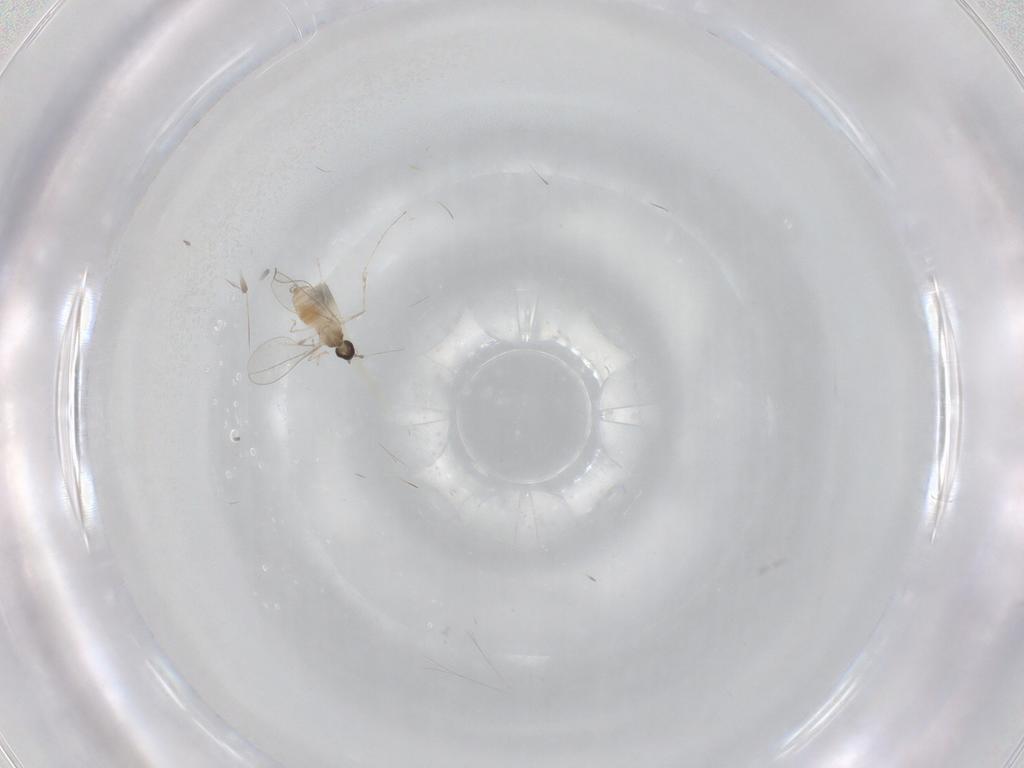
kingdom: Animalia
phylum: Arthropoda
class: Insecta
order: Diptera
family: Cecidomyiidae
